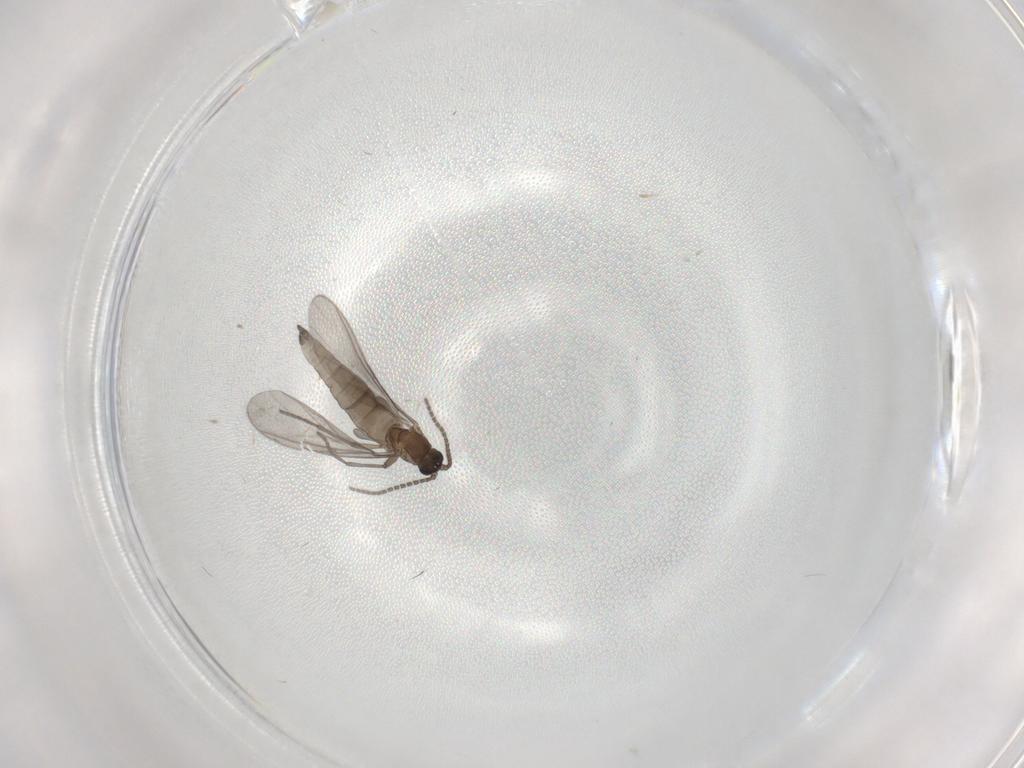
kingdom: Animalia
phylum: Arthropoda
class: Insecta
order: Diptera
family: Sciaridae
